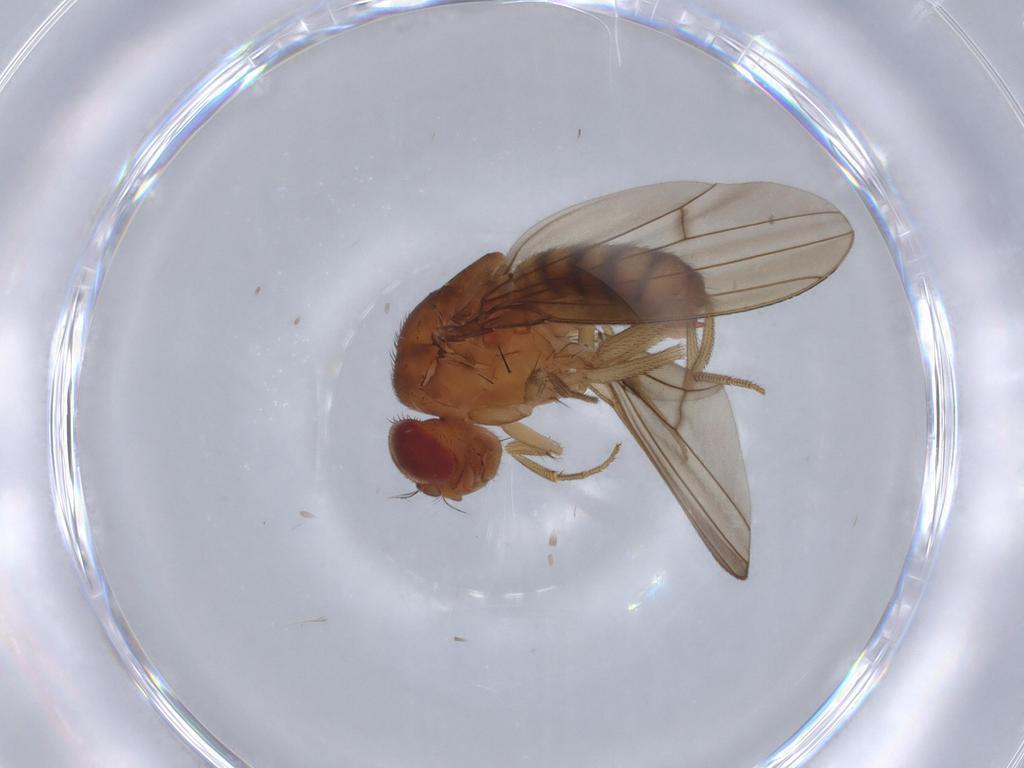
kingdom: Animalia
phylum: Arthropoda
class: Insecta
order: Diptera
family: Drosophilidae
